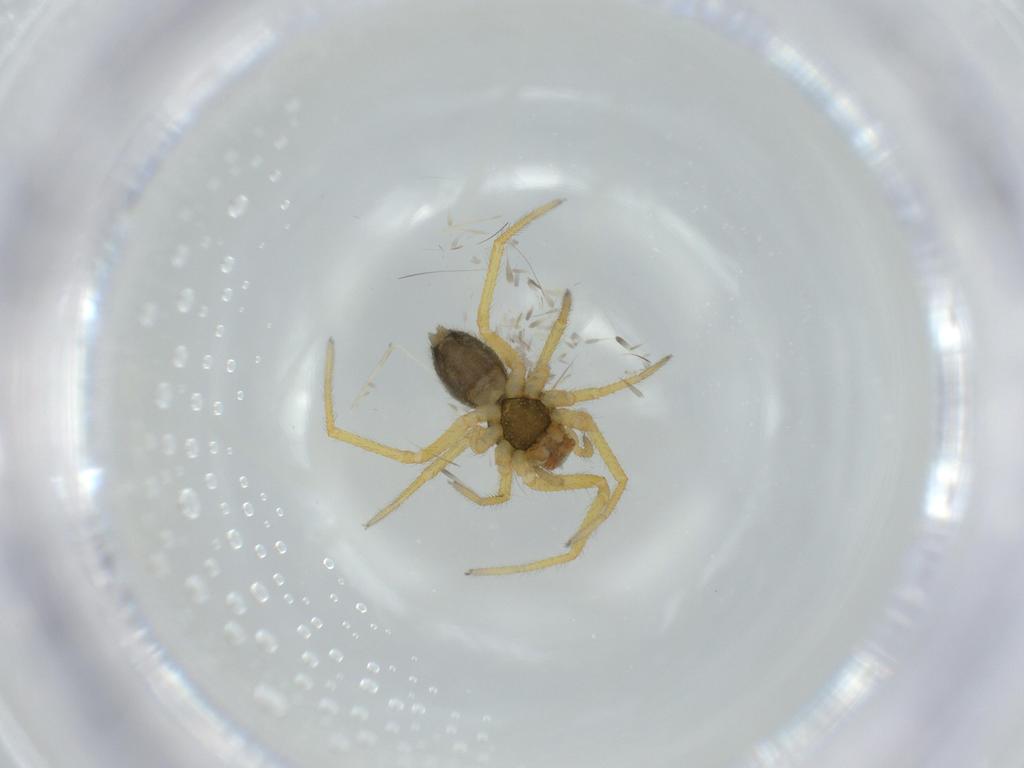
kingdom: Animalia
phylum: Arthropoda
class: Arachnida
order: Araneae
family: Linyphiidae
